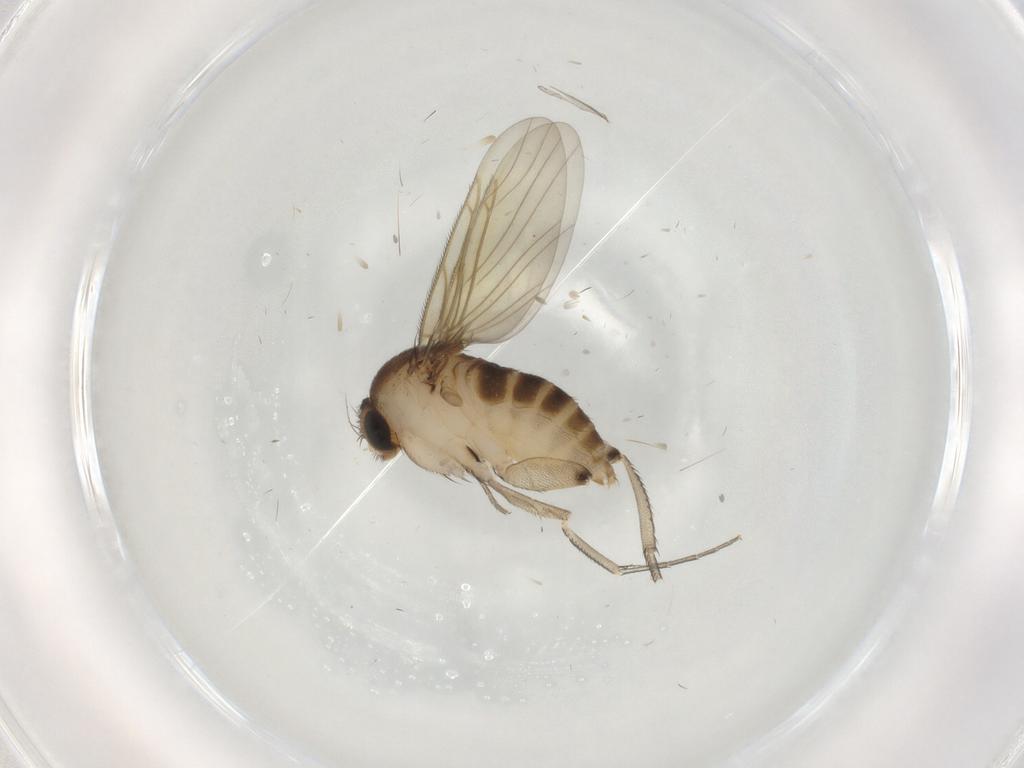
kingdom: Animalia
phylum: Arthropoda
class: Insecta
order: Diptera
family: Phoridae
